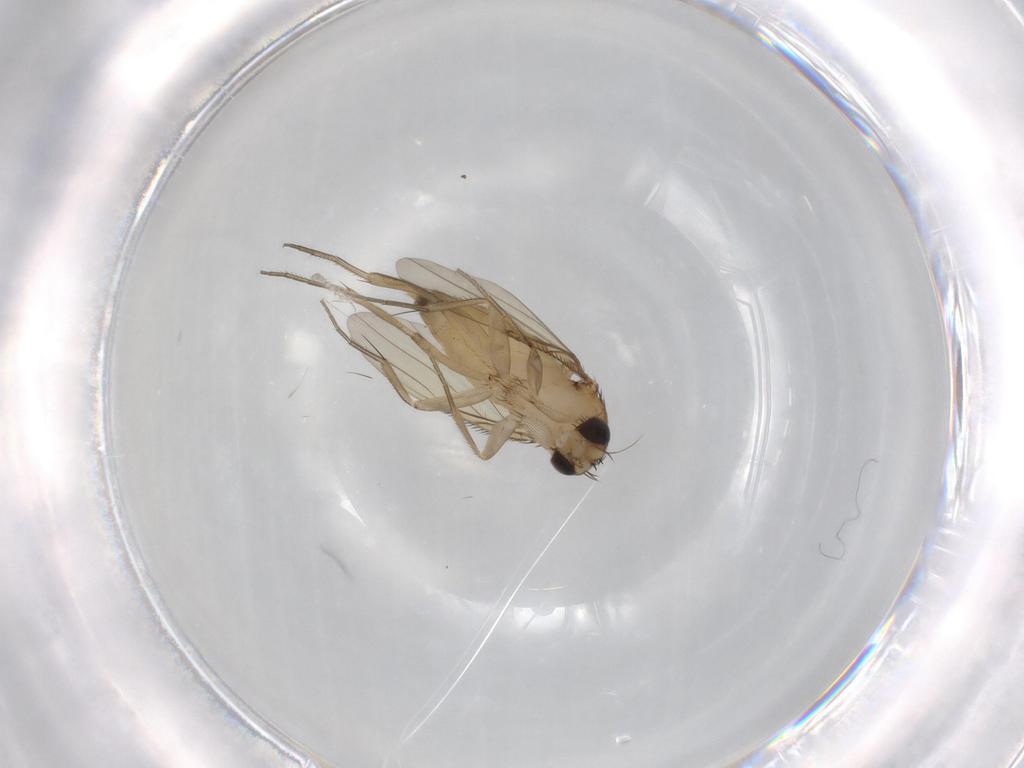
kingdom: Animalia
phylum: Arthropoda
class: Insecta
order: Diptera
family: Phoridae
